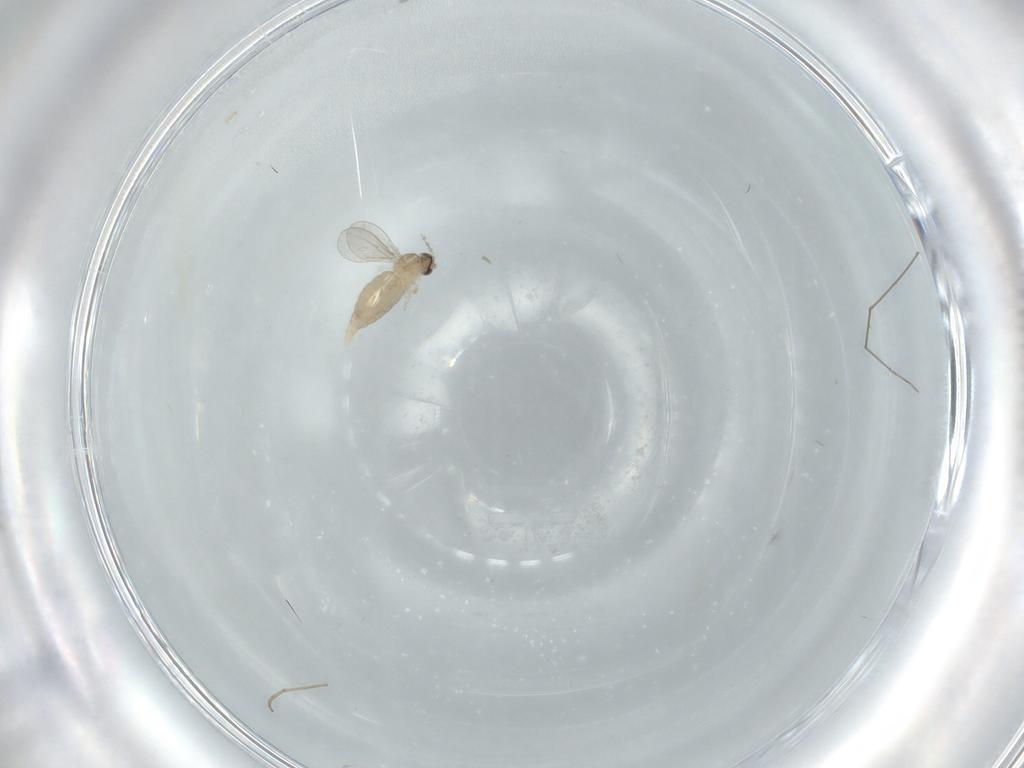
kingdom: Animalia
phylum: Arthropoda
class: Insecta
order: Diptera
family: Cecidomyiidae
